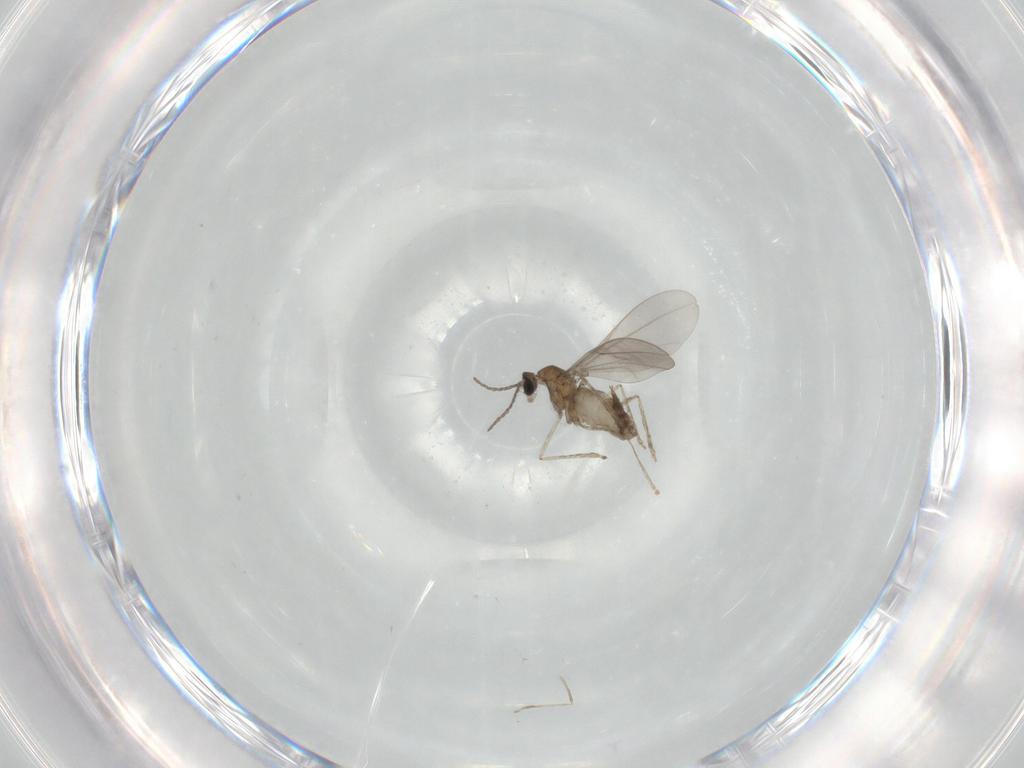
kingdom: Animalia
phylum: Arthropoda
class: Insecta
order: Diptera
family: Cecidomyiidae
